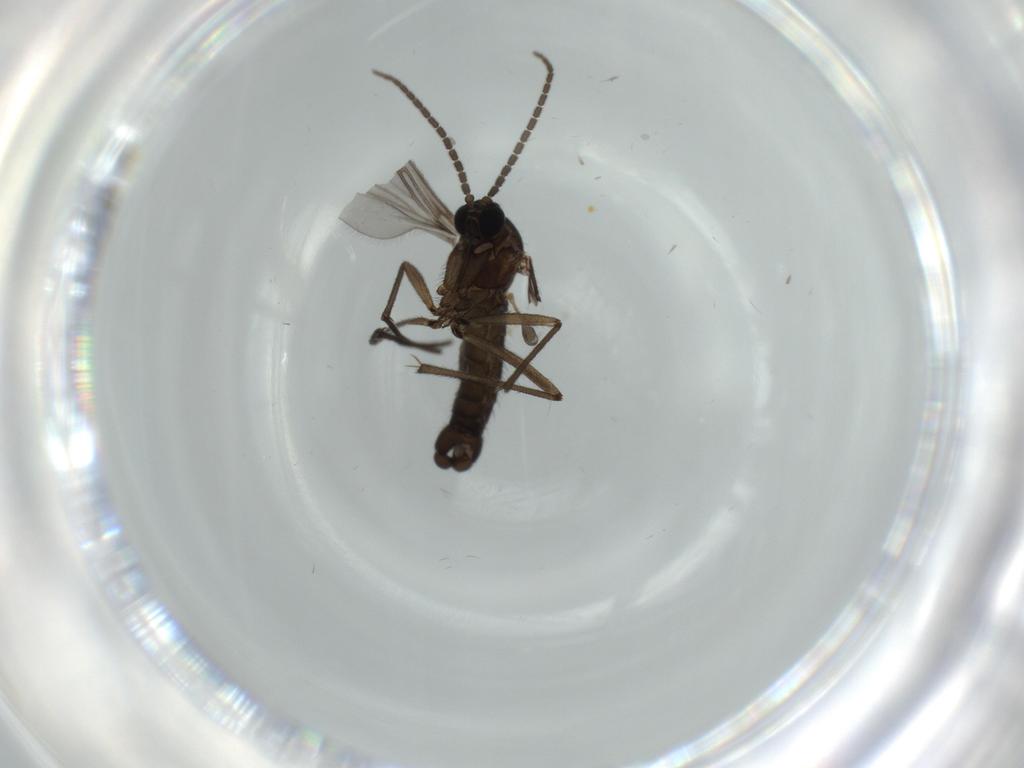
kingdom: Animalia
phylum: Arthropoda
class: Insecta
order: Diptera
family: Sciaridae
